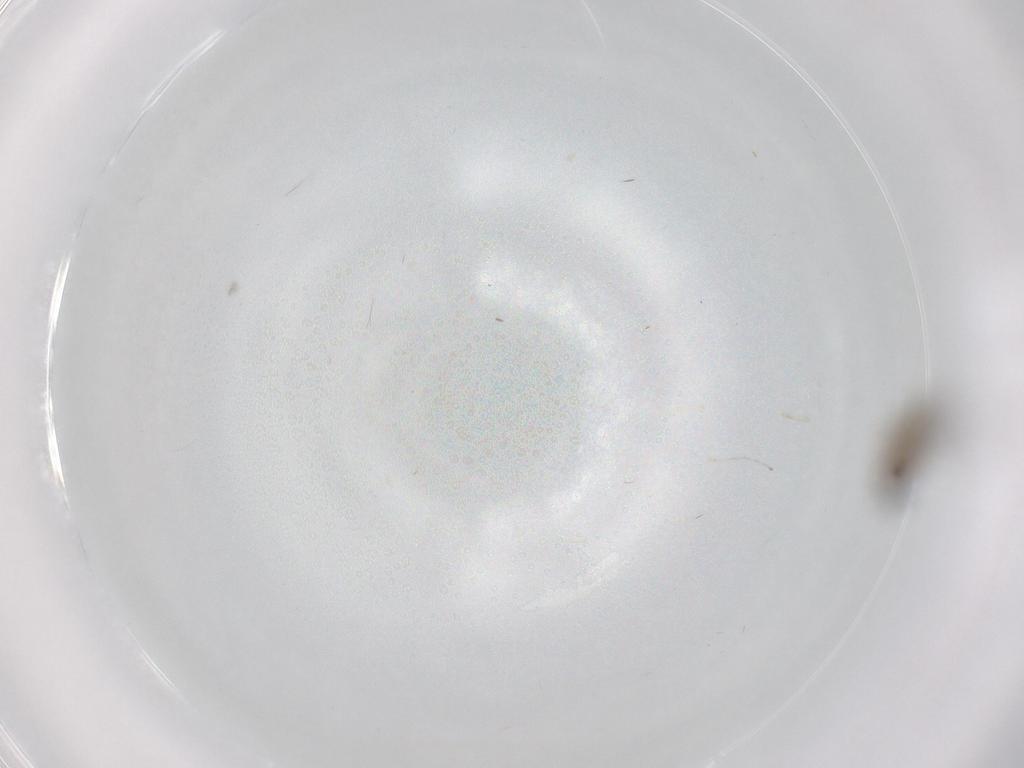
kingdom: Animalia
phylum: Arthropoda
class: Insecta
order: Diptera
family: Cecidomyiidae
